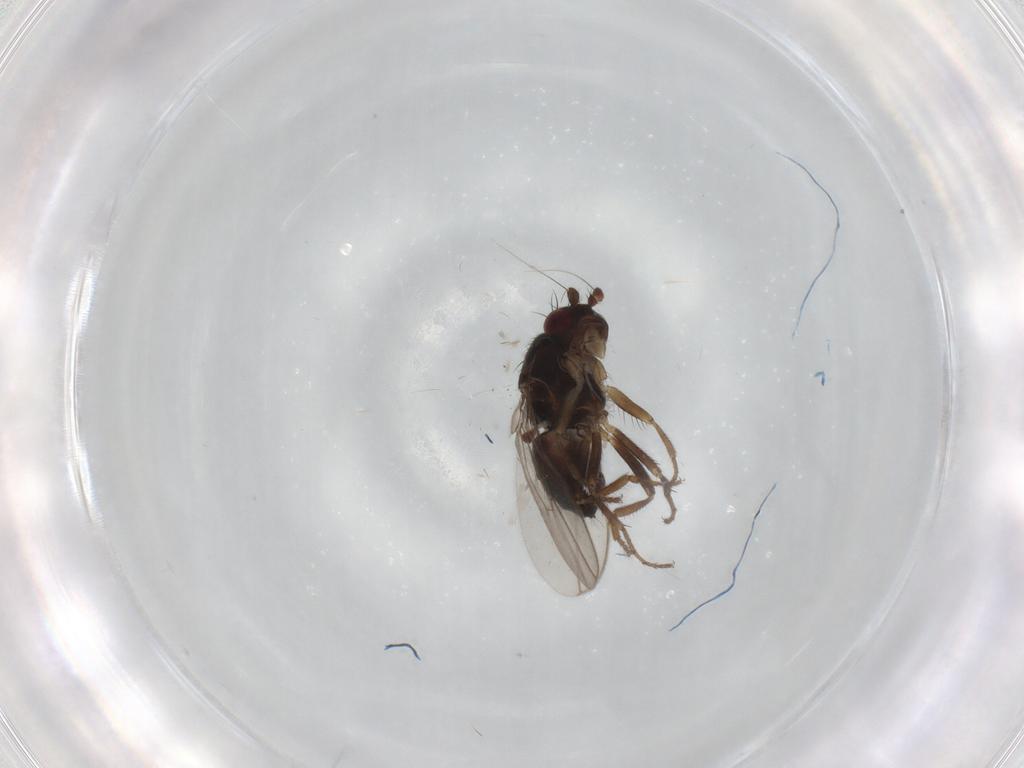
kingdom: Animalia
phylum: Arthropoda
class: Insecta
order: Diptera
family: Sphaeroceridae
